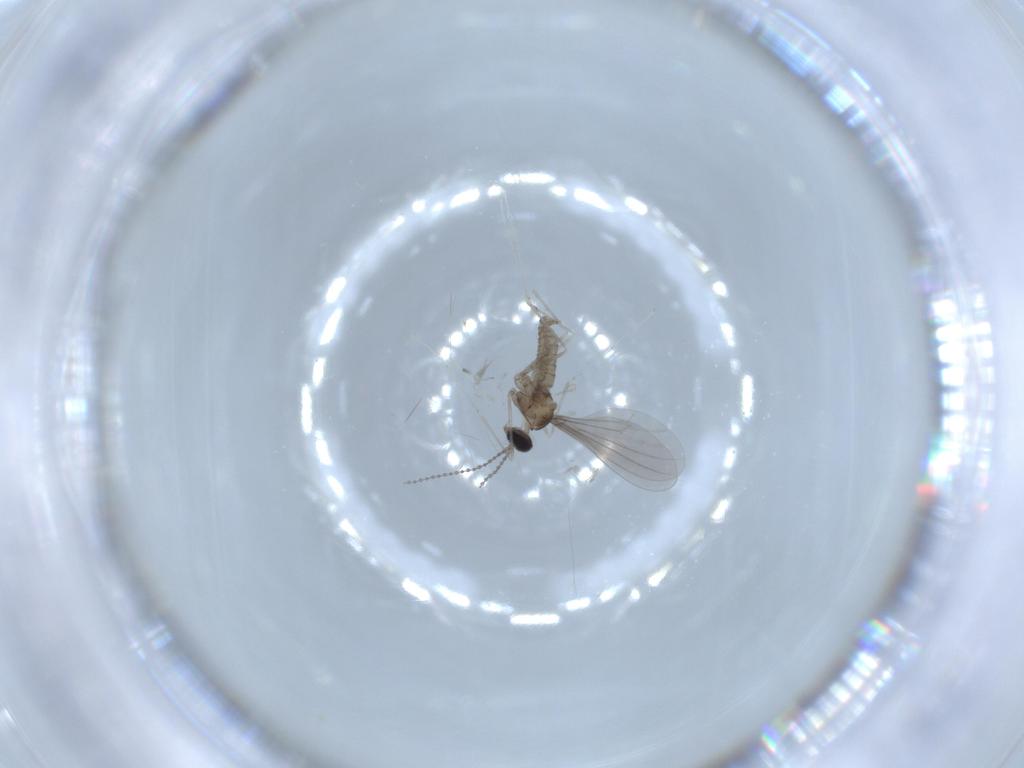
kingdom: Animalia
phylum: Arthropoda
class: Insecta
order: Diptera
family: Cecidomyiidae
